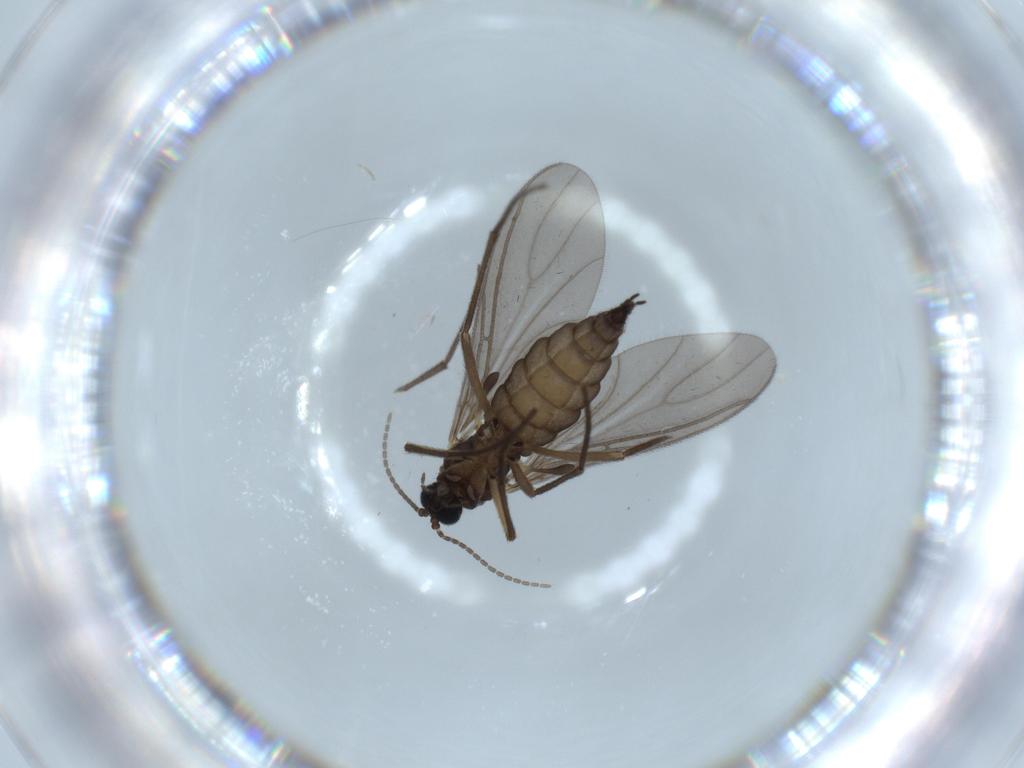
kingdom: Animalia
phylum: Arthropoda
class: Insecta
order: Diptera
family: Sciaridae
